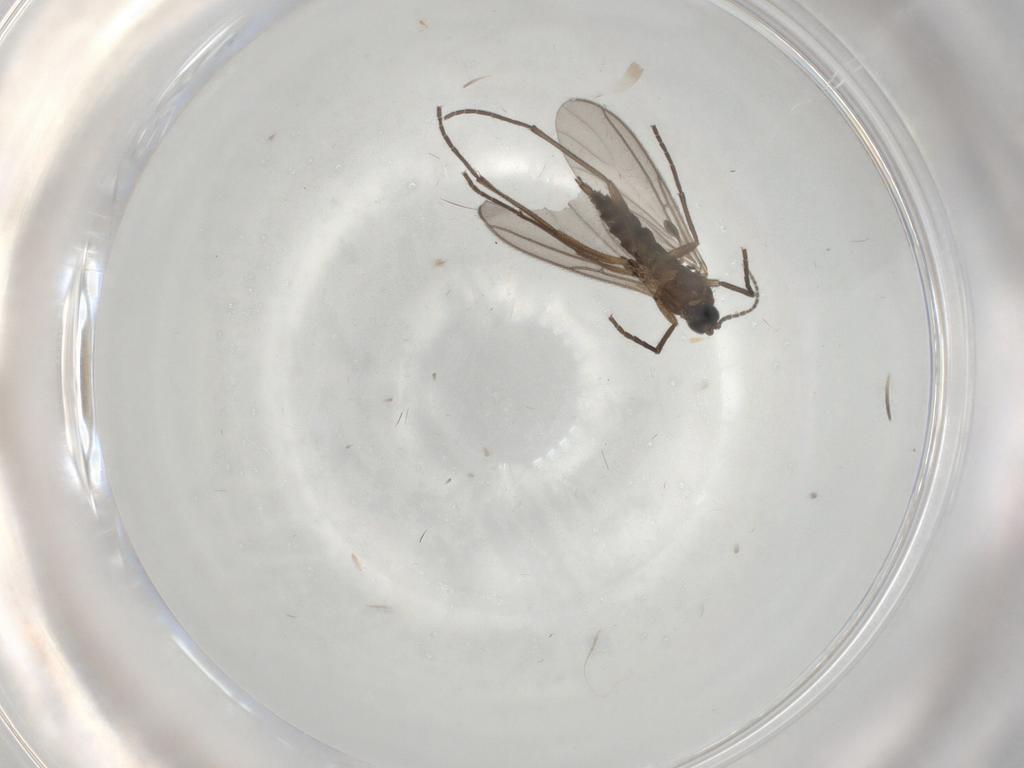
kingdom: Animalia
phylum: Arthropoda
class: Insecta
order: Diptera
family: Sciaridae
